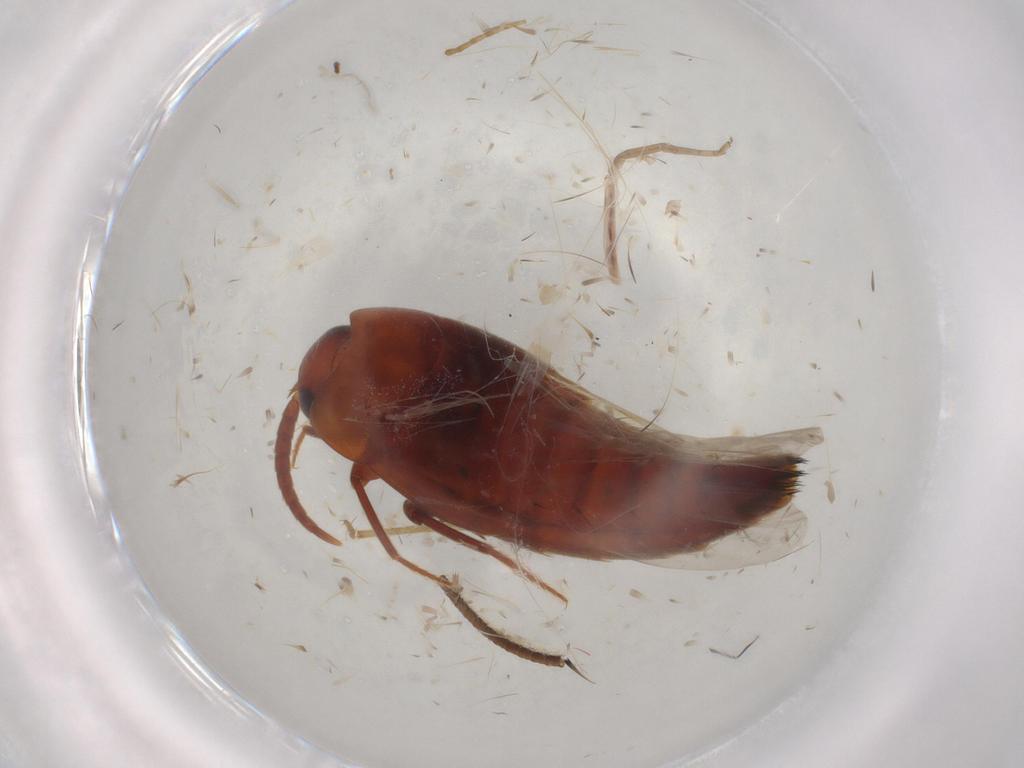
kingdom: Animalia
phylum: Arthropoda
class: Insecta
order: Coleoptera
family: Staphylinidae
